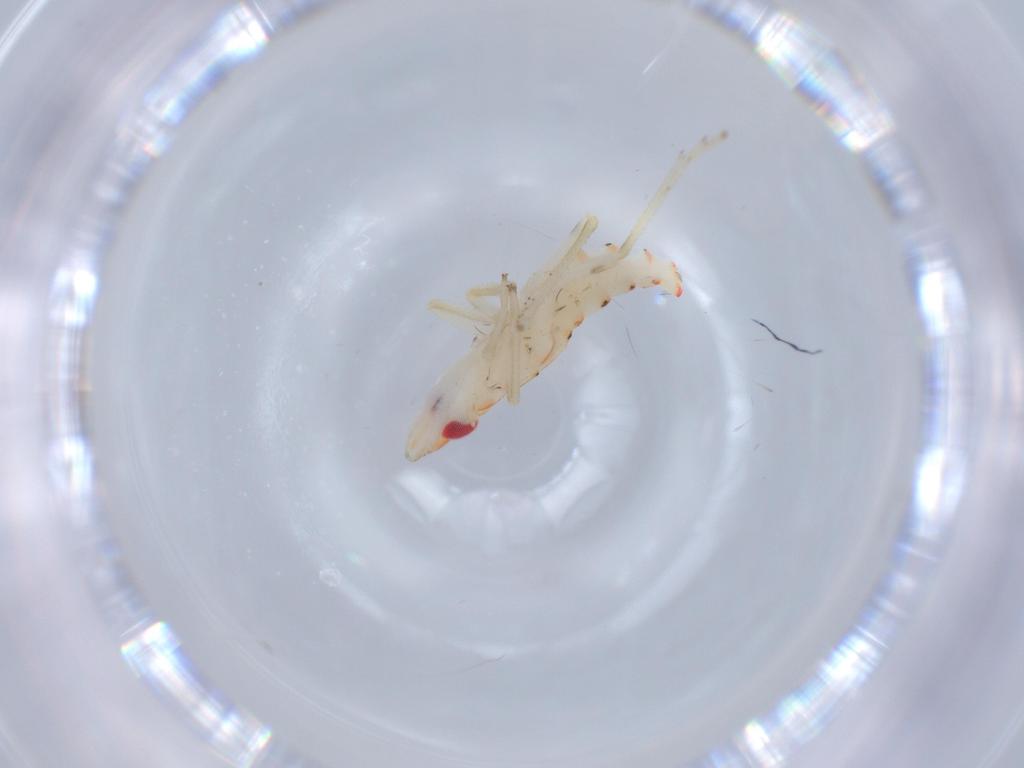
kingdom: Animalia
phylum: Arthropoda
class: Insecta
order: Hemiptera
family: Tropiduchidae
